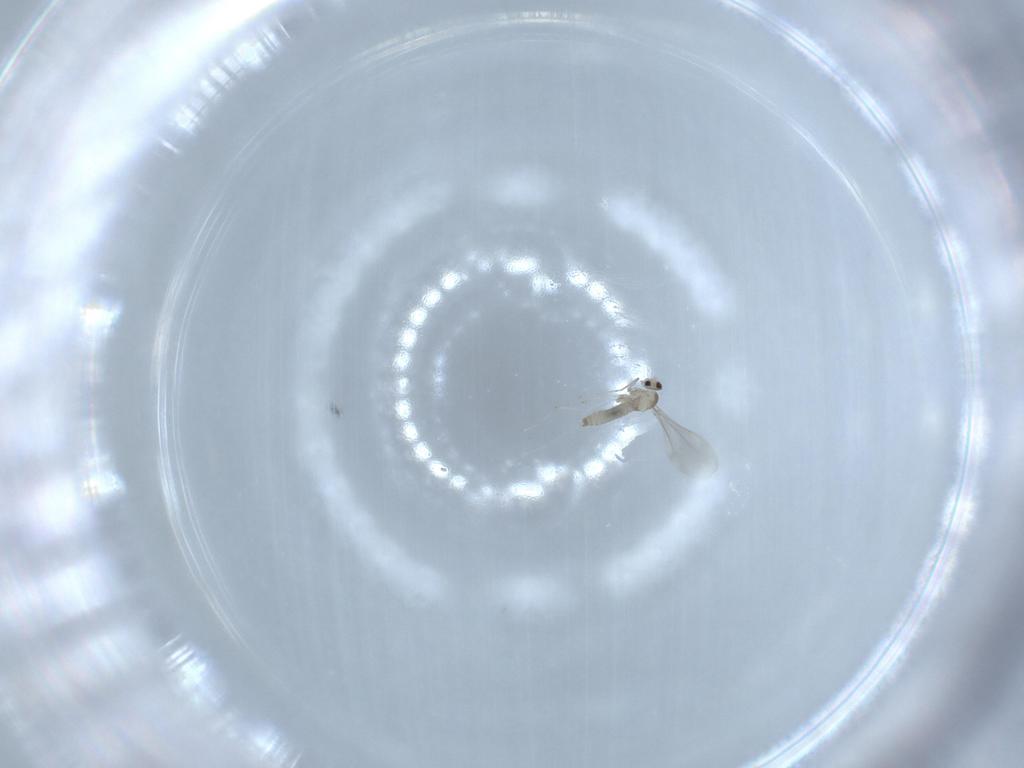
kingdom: Animalia
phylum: Arthropoda
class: Insecta
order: Diptera
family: Cecidomyiidae
